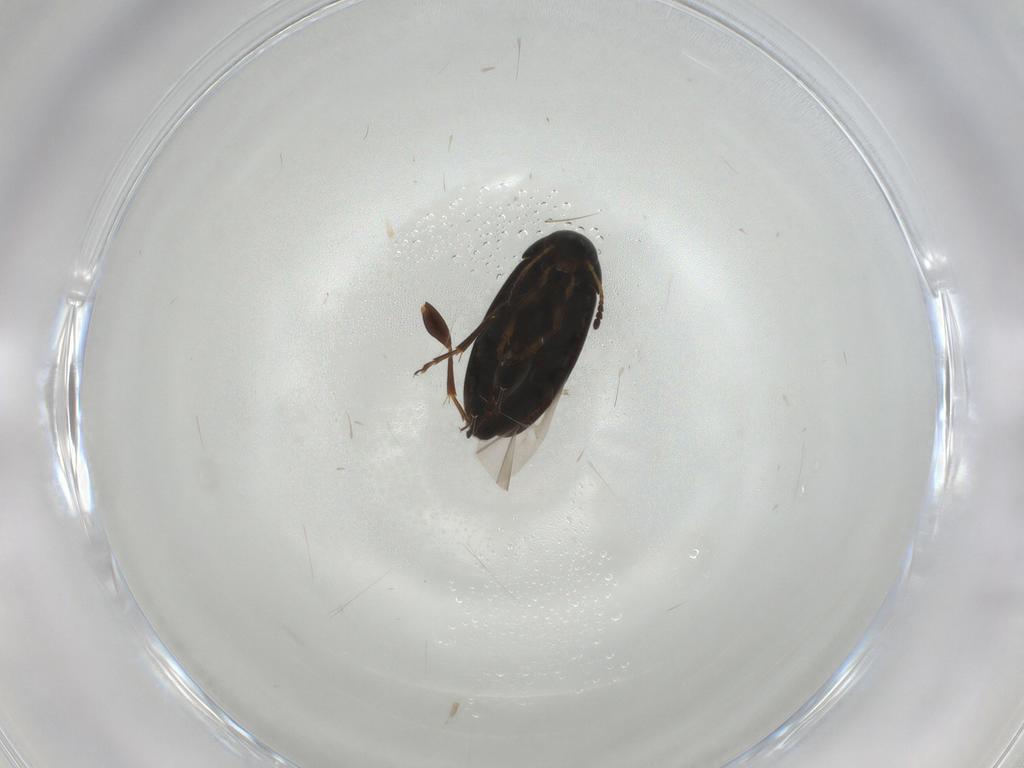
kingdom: Animalia
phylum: Arthropoda
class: Insecta
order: Coleoptera
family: Scraptiidae
